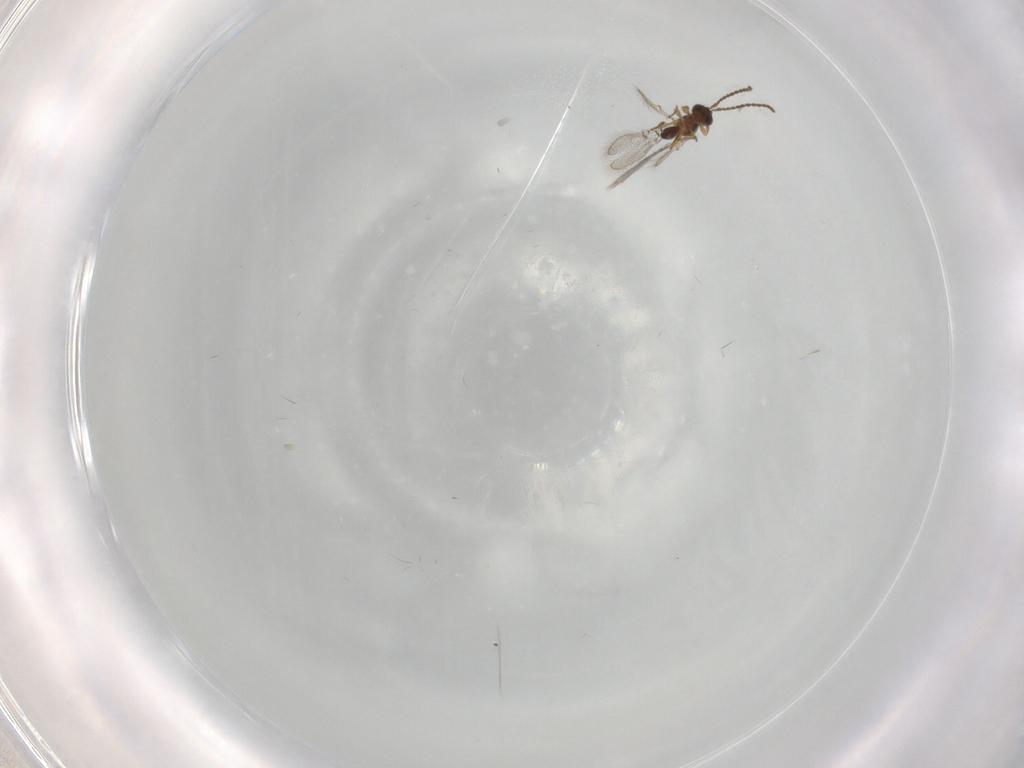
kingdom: Animalia
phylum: Arthropoda
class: Insecta
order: Hymenoptera
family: Figitidae
